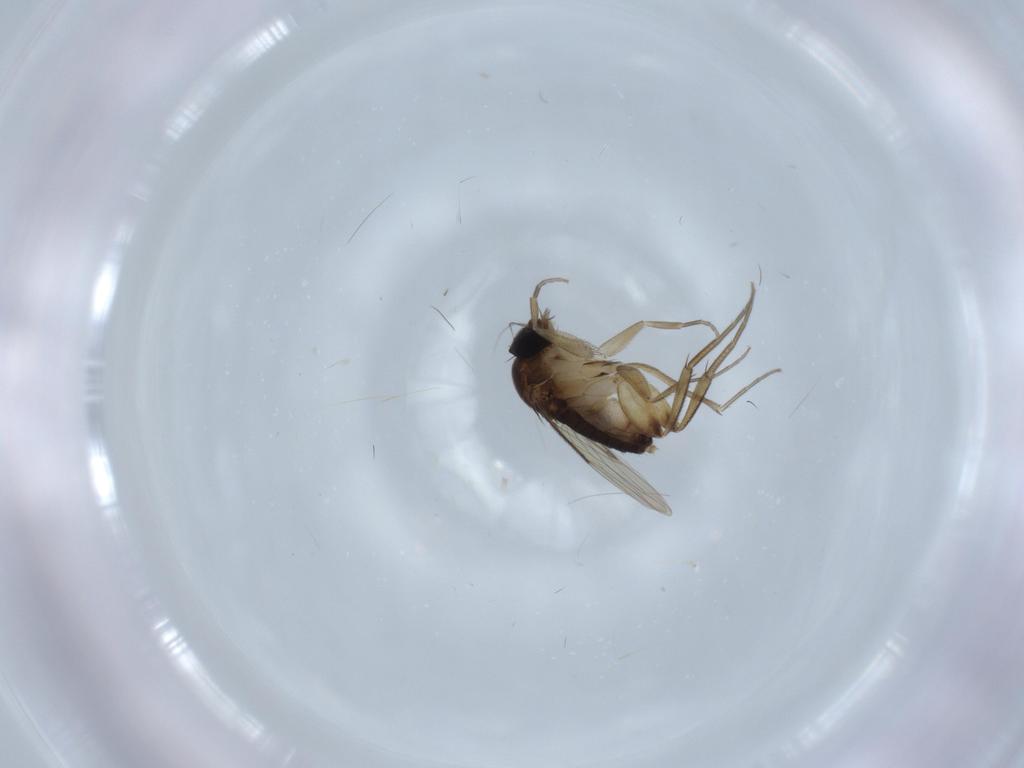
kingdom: Animalia
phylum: Arthropoda
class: Insecta
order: Diptera
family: Phoridae
